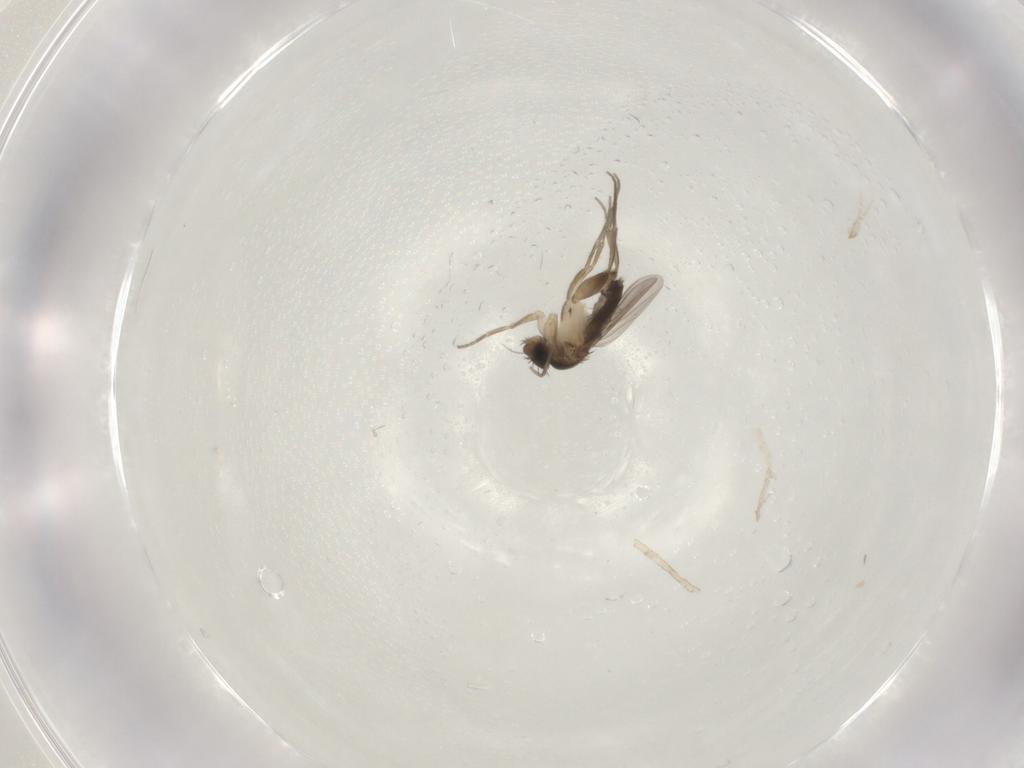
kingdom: Animalia
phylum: Arthropoda
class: Insecta
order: Diptera
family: Phoridae
